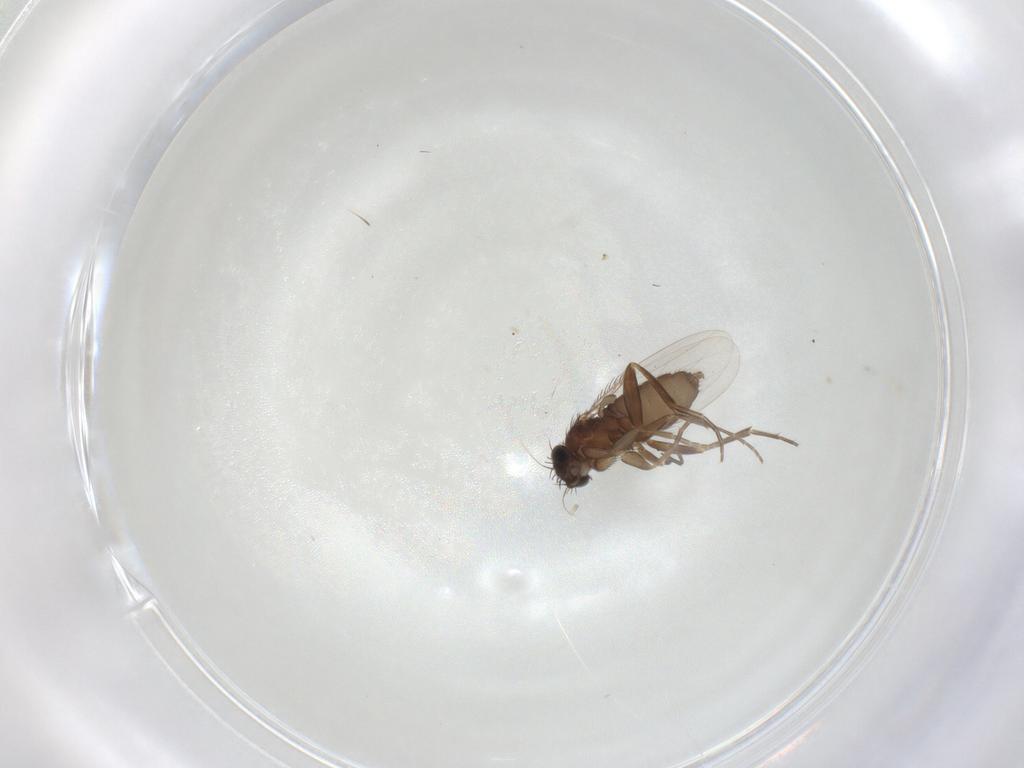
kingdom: Animalia
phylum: Arthropoda
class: Insecta
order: Diptera
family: Phoridae
